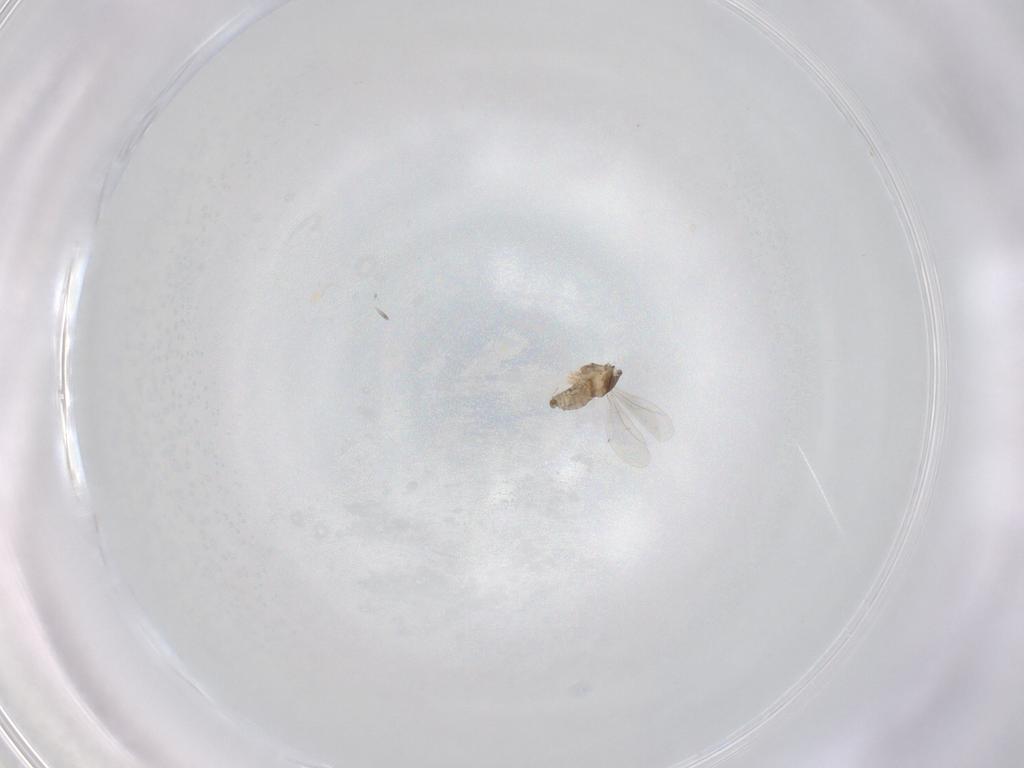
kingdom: Animalia
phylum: Arthropoda
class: Insecta
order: Diptera
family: Cecidomyiidae
